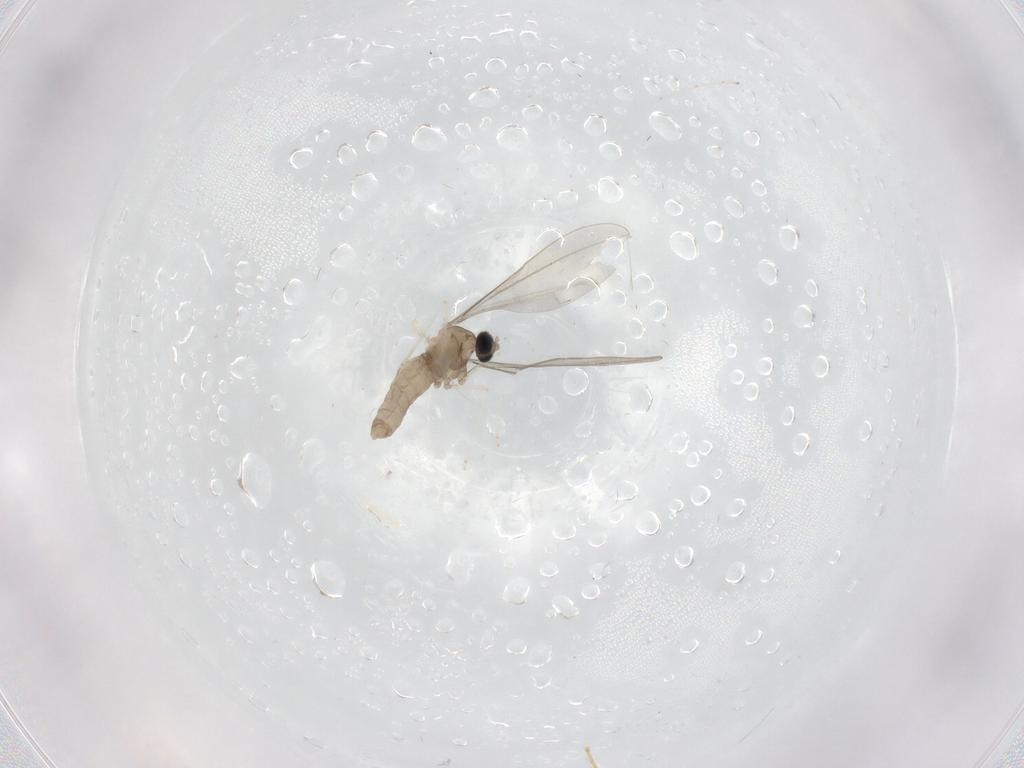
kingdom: Animalia
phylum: Arthropoda
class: Insecta
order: Diptera
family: Cecidomyiidae
